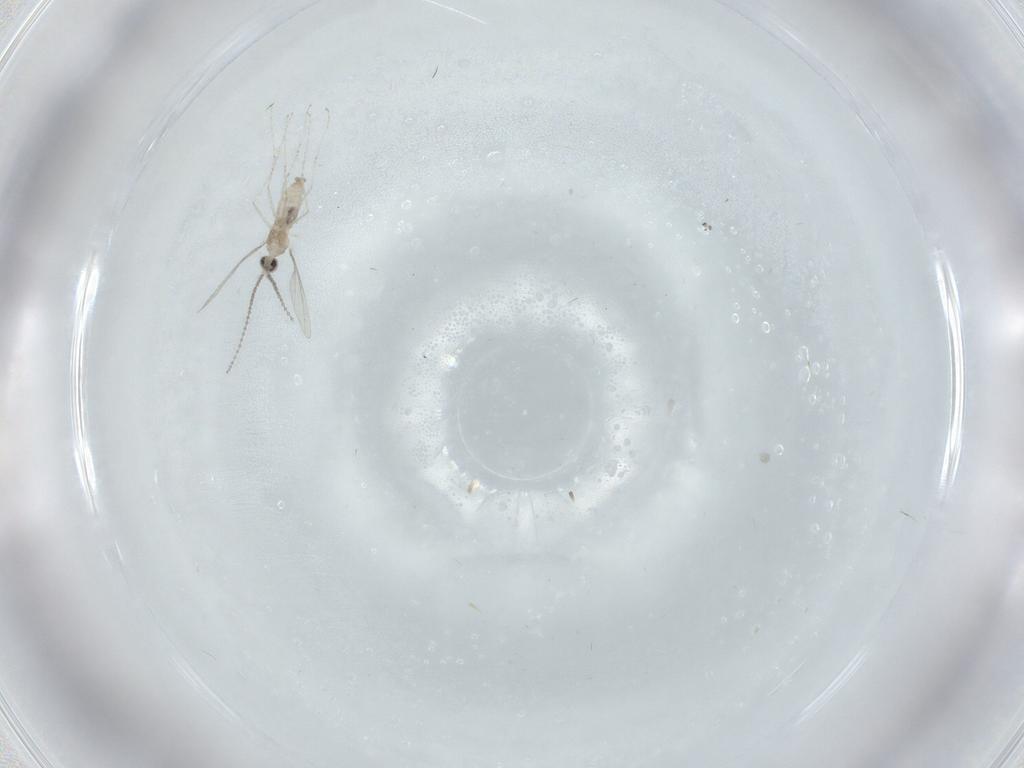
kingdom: Animalia
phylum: Arthropoda
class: Insecta
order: Diptera
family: Cecidomyiidae
